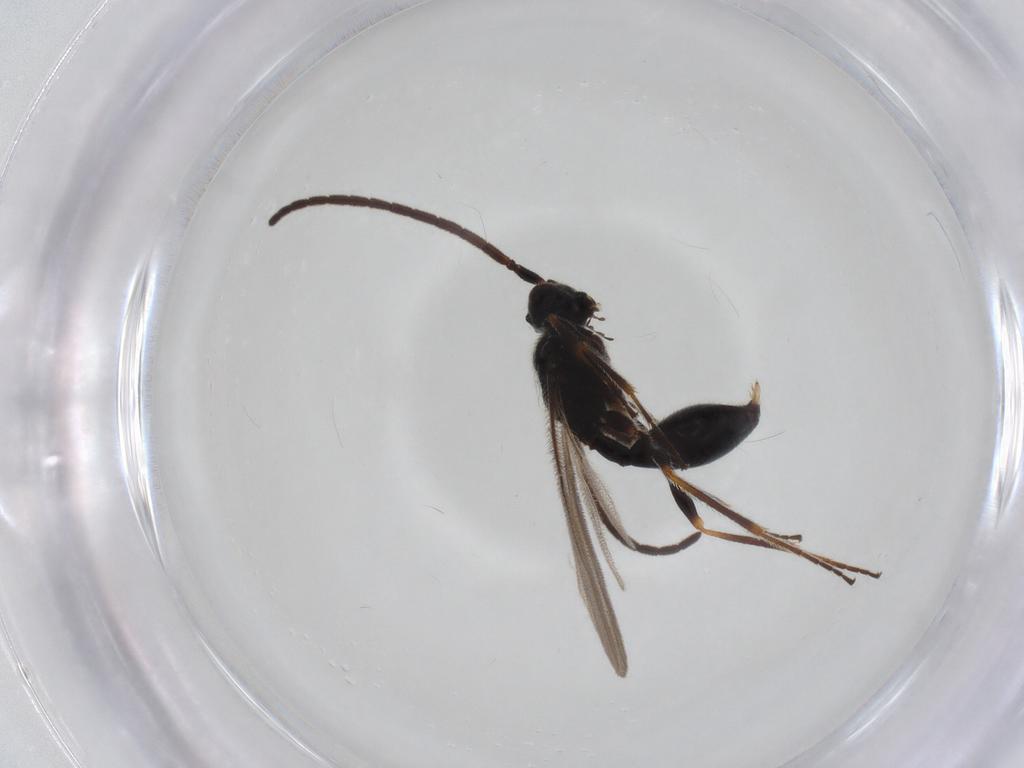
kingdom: Animalia
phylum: Arthropoda
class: Insecta
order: Hymenoptera
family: Diapriidae
